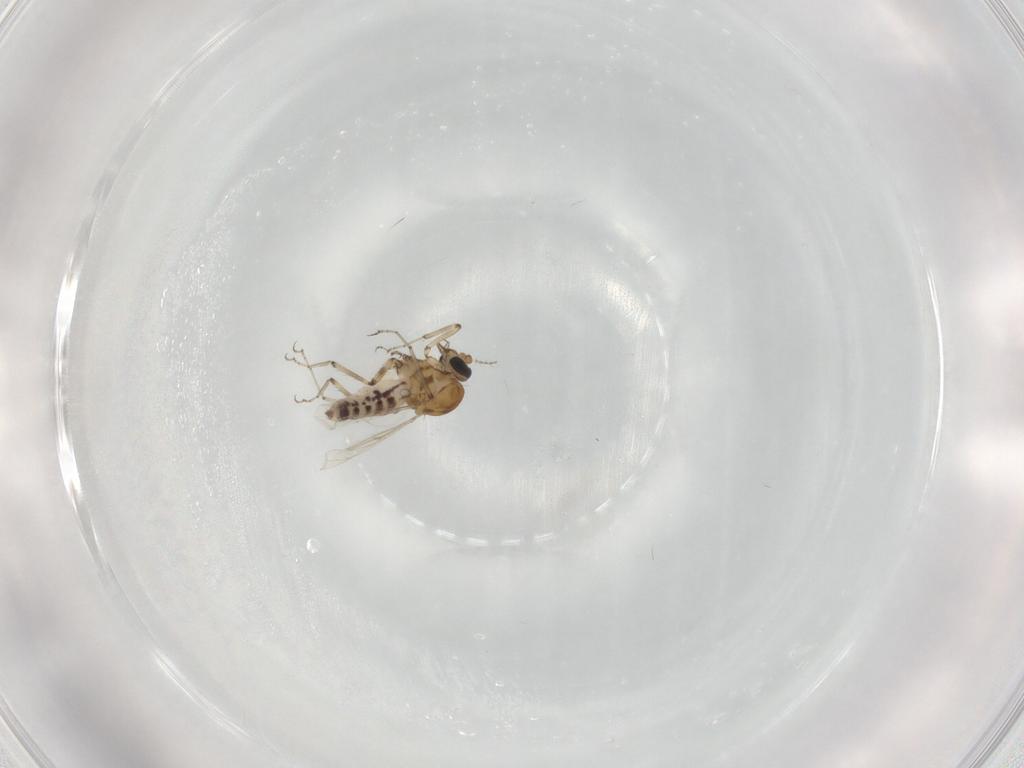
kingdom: Animalia
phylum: Arthropoda
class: Insecta
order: Diptera
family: Ceratopogonidae
